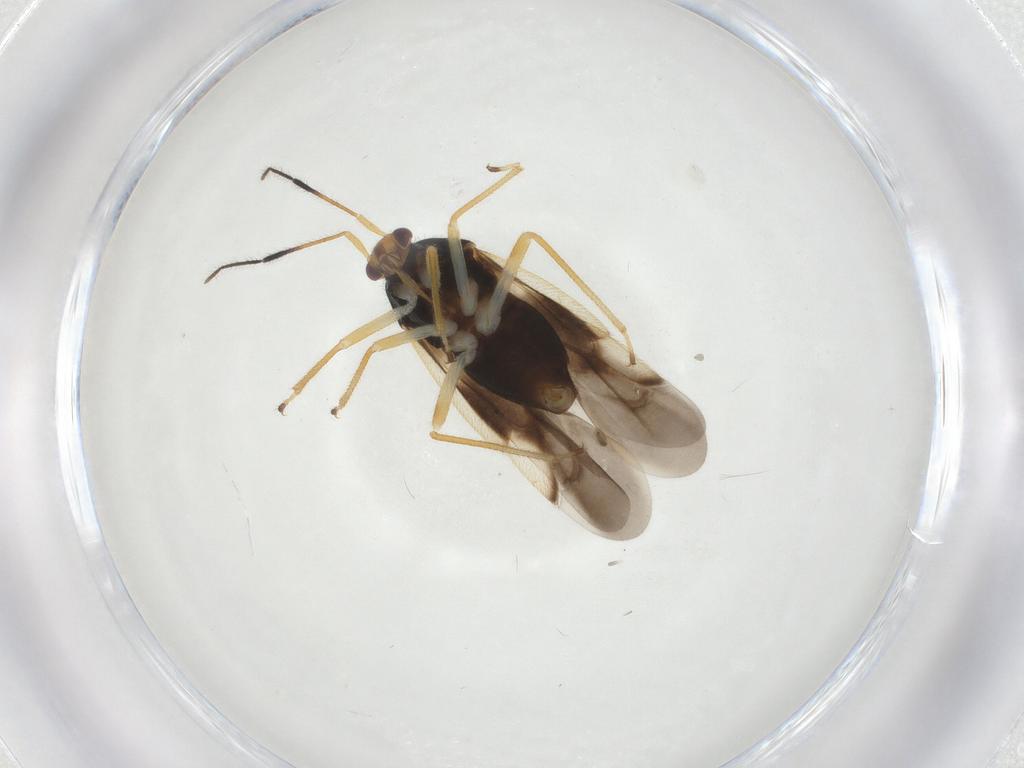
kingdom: Animalia
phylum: Arthropoda
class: Insecta
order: Hemiptera
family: Miridae
